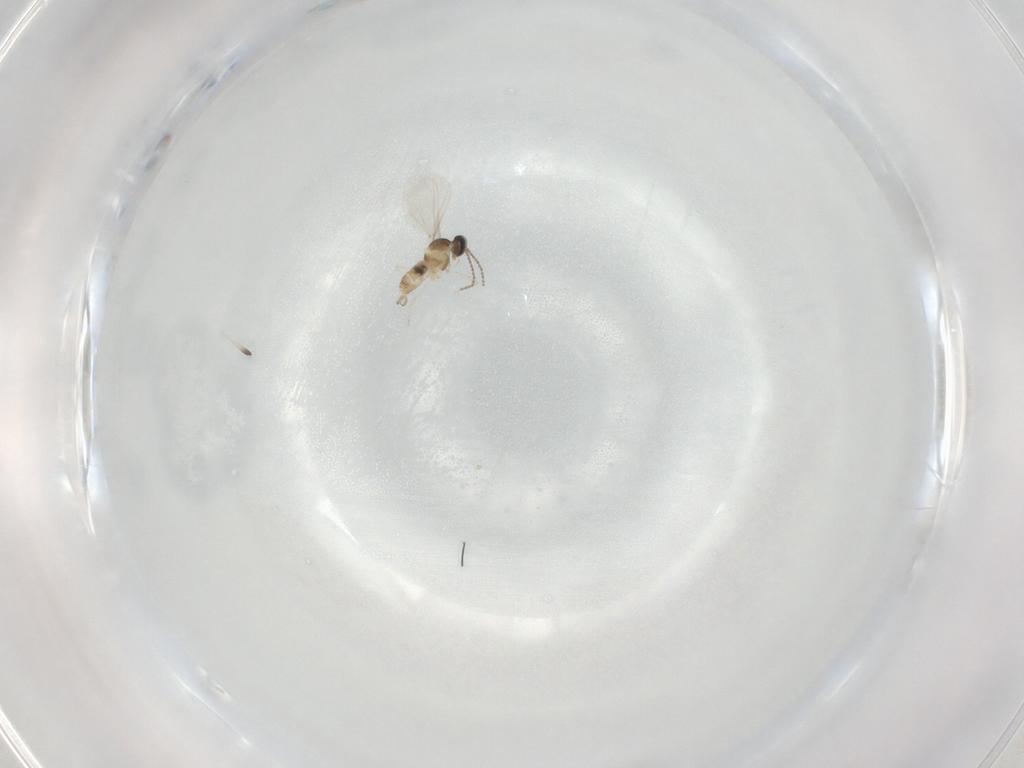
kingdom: Animalia
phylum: Arthropoda
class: Insecta
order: Diptera
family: Cecidomyiidae
